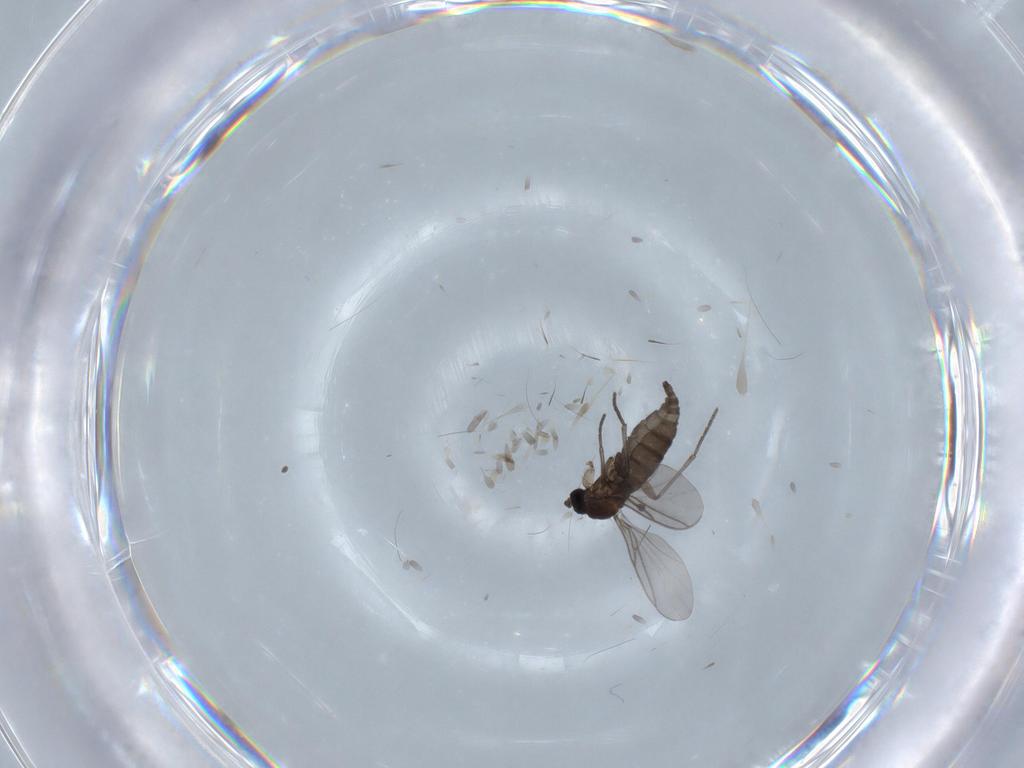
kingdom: Animalia
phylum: Arthropoda
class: Insecta
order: Diptera
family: Sciaridae
